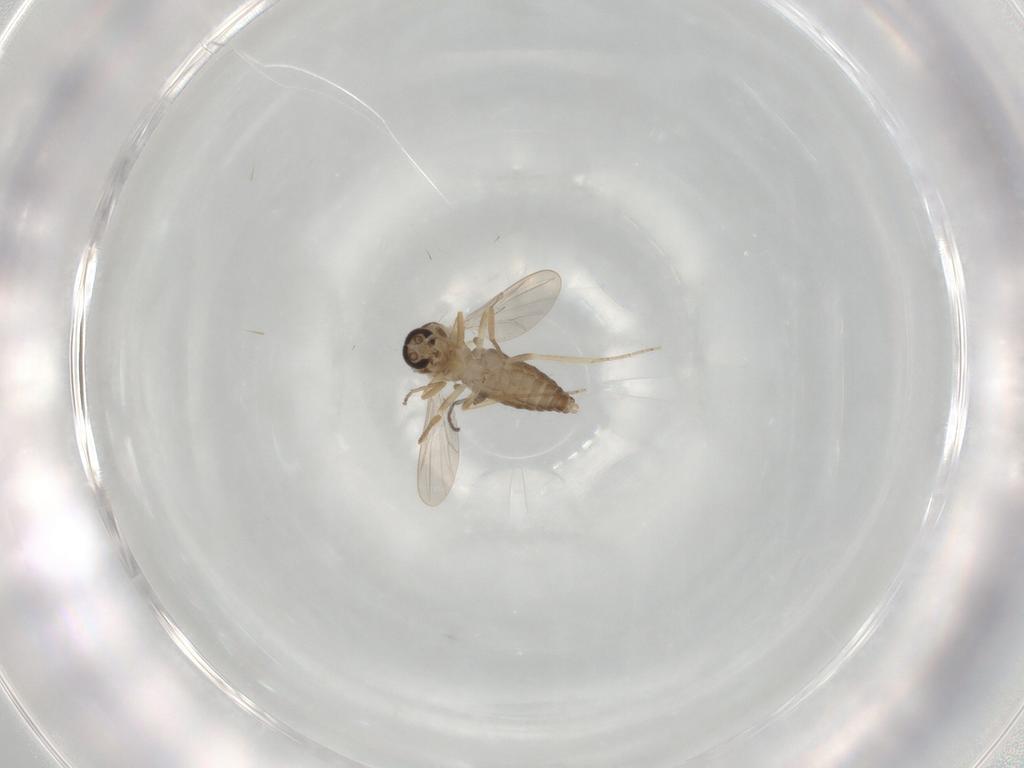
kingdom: Animalia
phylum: Arthropoda
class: Insecta
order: Diptera
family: Ceratopogonidae
